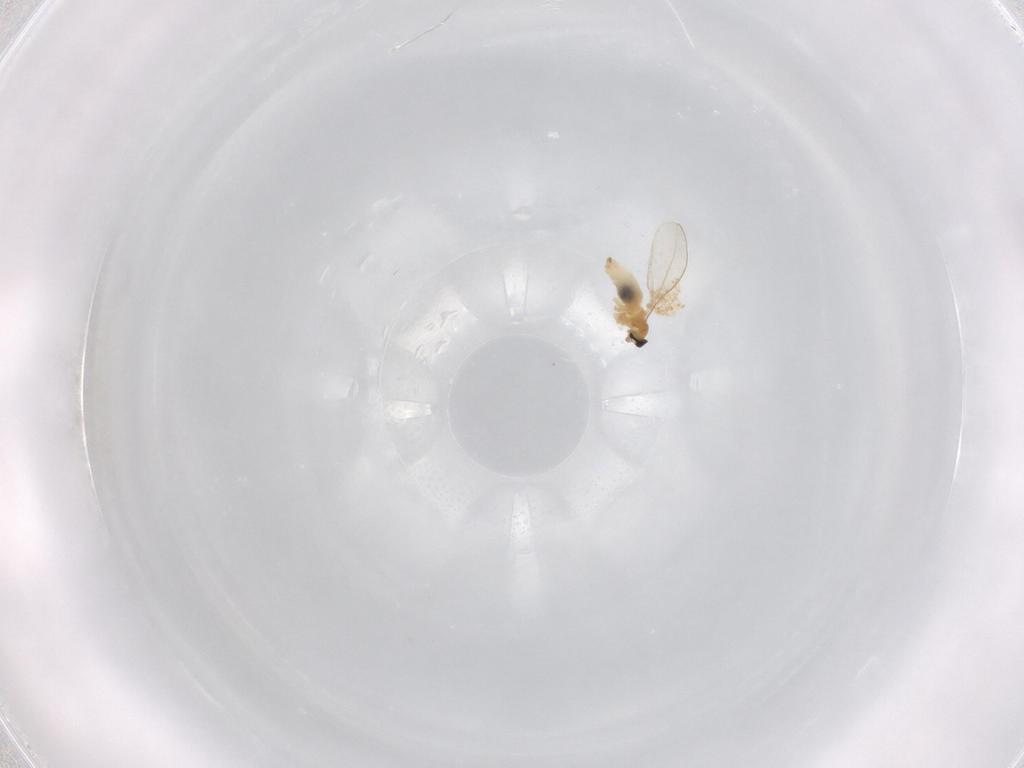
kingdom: Animalia
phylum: Arthropoda
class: Insecta
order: Diptera
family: Cecidomyiidae
